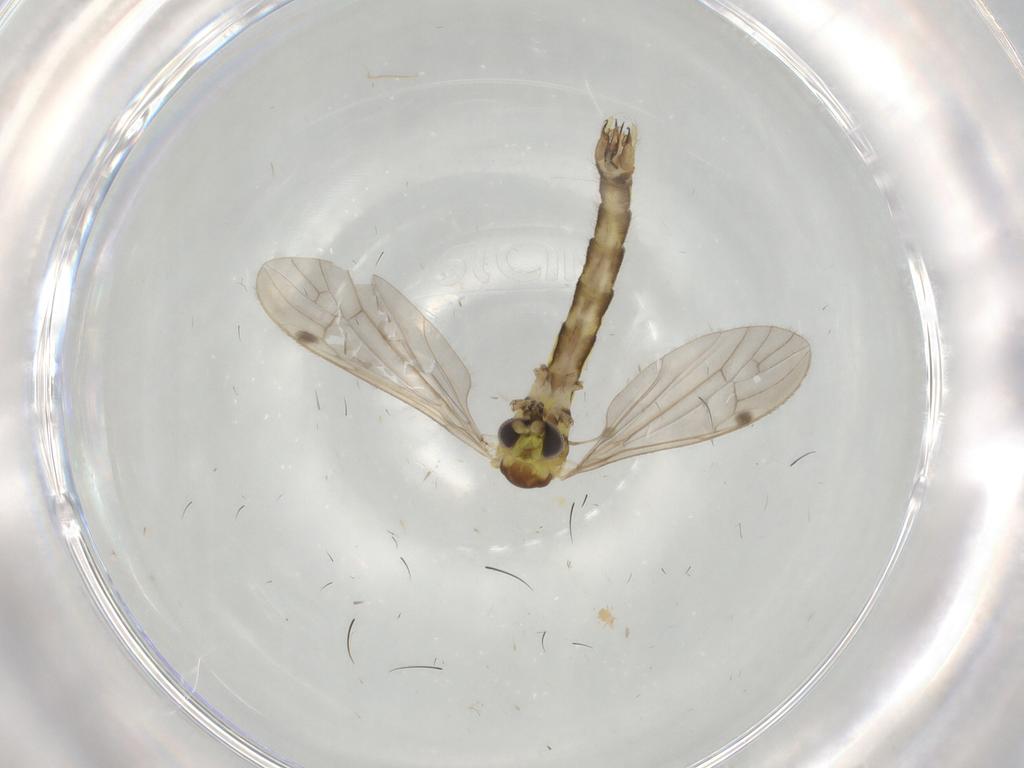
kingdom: Animalia
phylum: Arthropoda
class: Insecta
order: Diptera
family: Limoniidae
